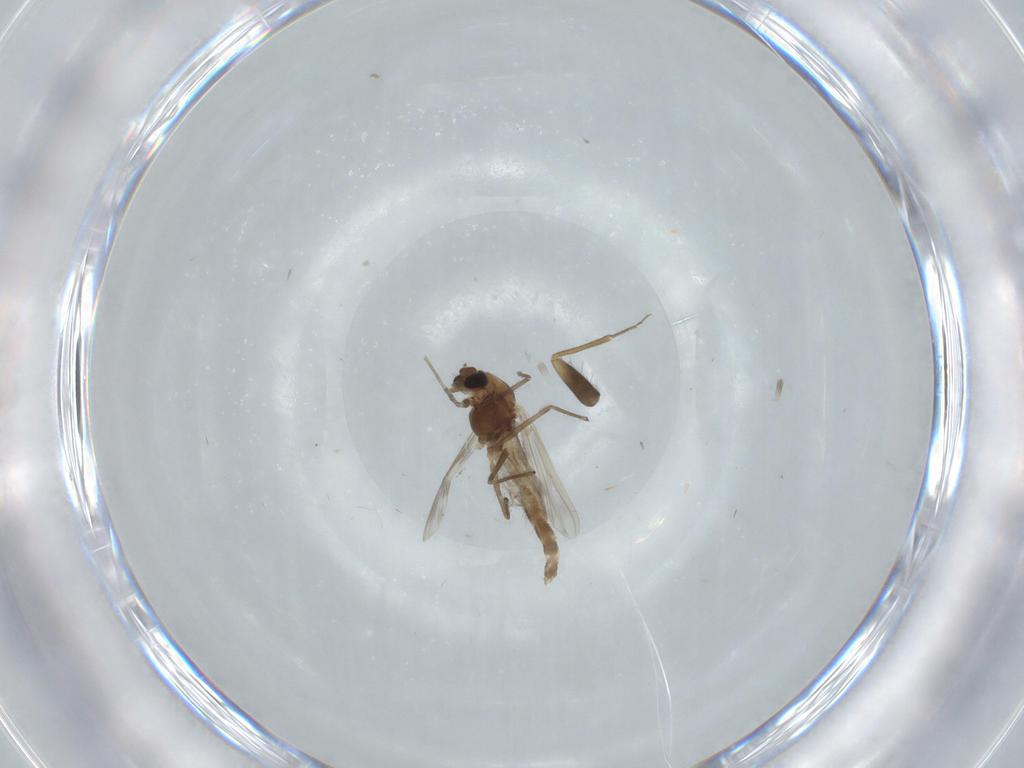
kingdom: Animalia
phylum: Arthropoda
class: Insecta
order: Diptera
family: Chironomidae
